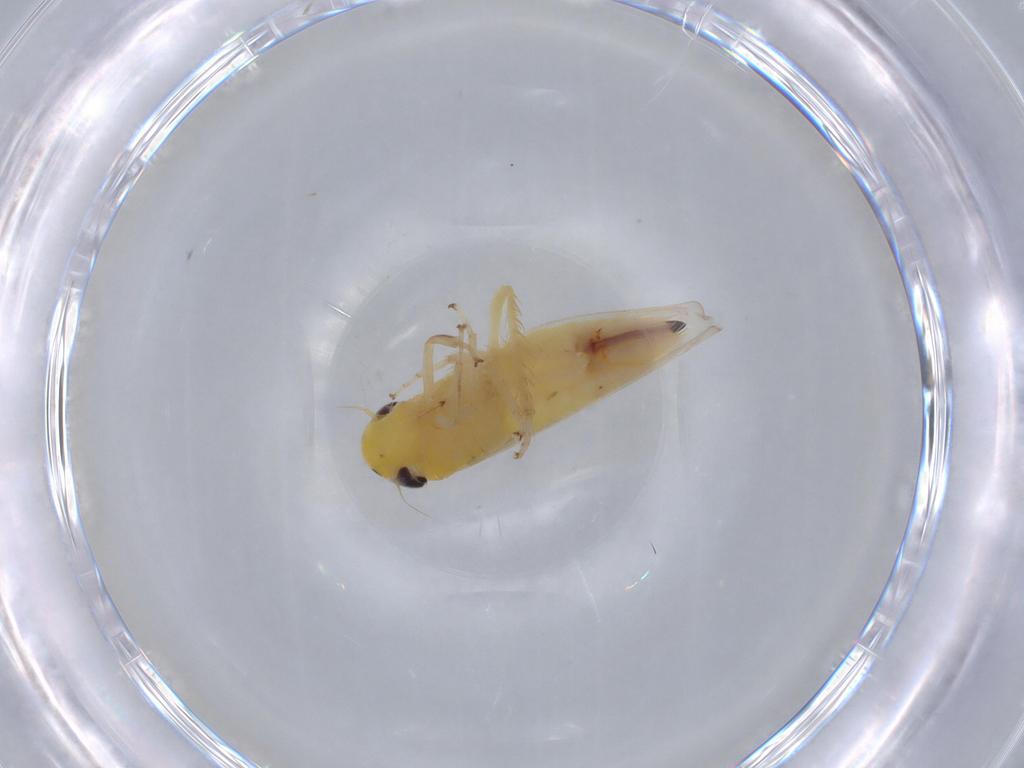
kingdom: Animalia
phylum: Arthropoda
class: Insecta
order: Hemiptera
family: Cicadellidae
